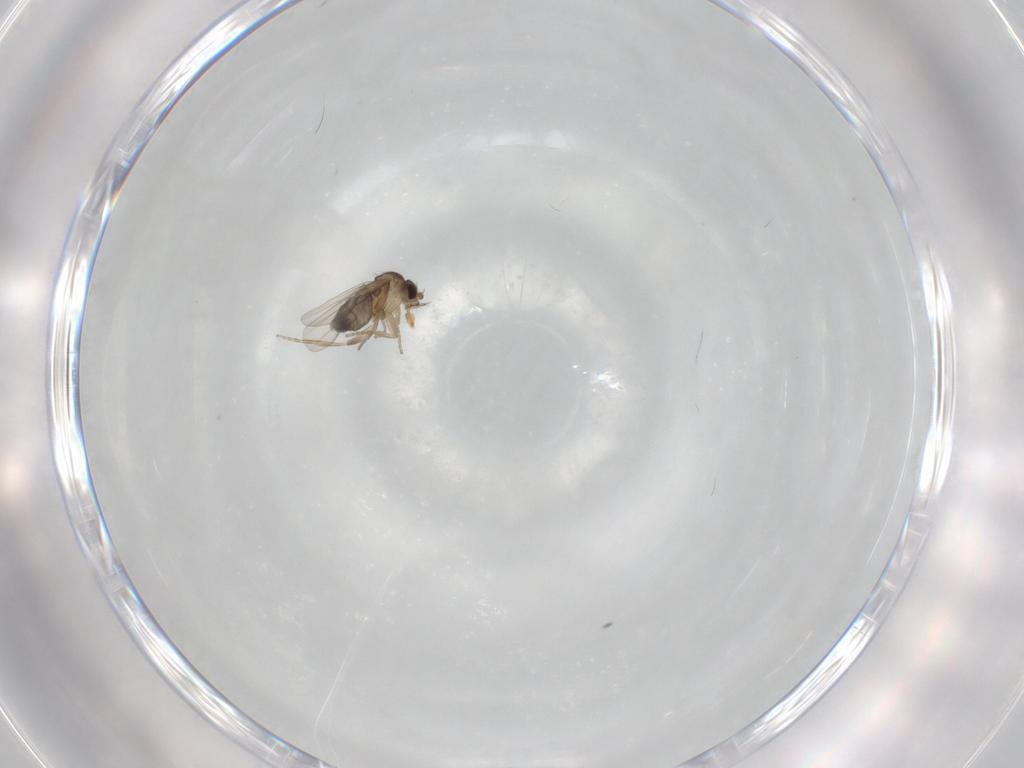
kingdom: Animalia
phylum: Arthropoda
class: Insecta
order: Diptera
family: Phoridae
